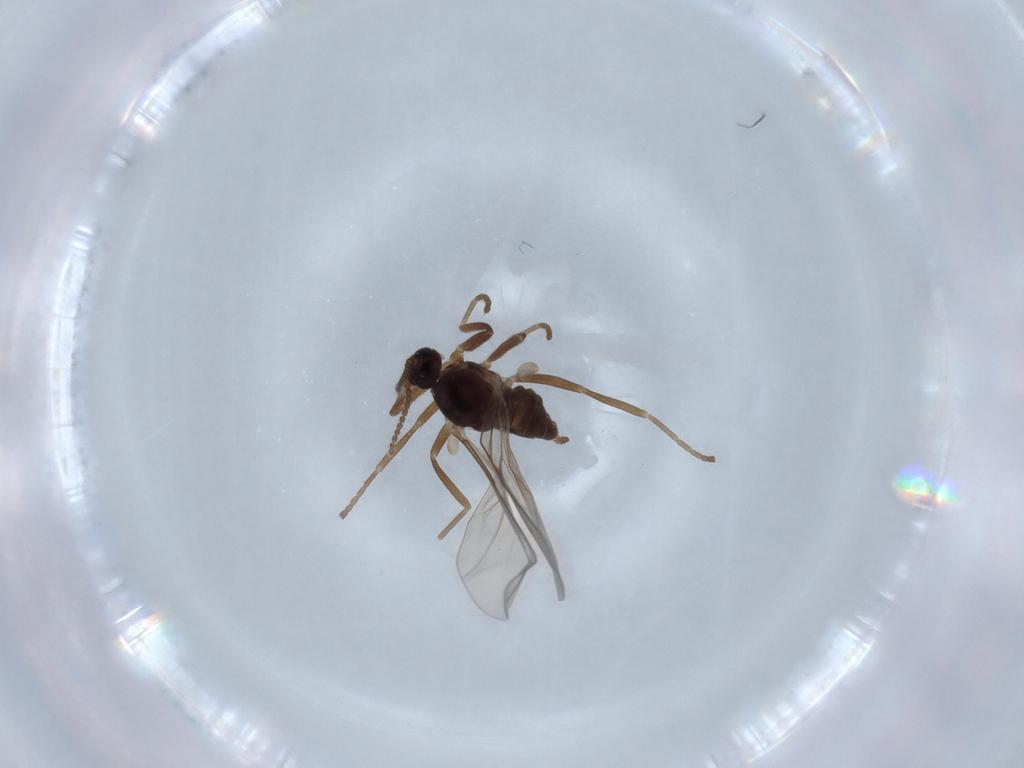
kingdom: Animalia
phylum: Arthropoda
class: Insecta
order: Diptera
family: Cecidomyiidae
